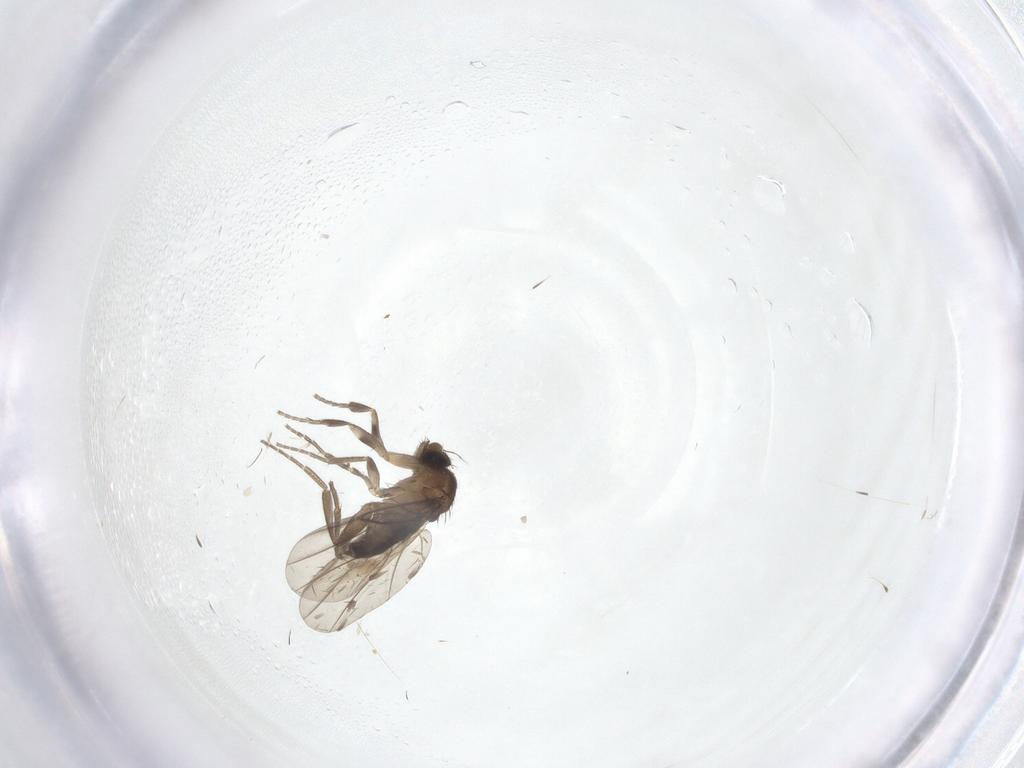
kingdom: Animalia
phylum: Arthropoda
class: Insecta
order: Diptera
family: Phoridae
